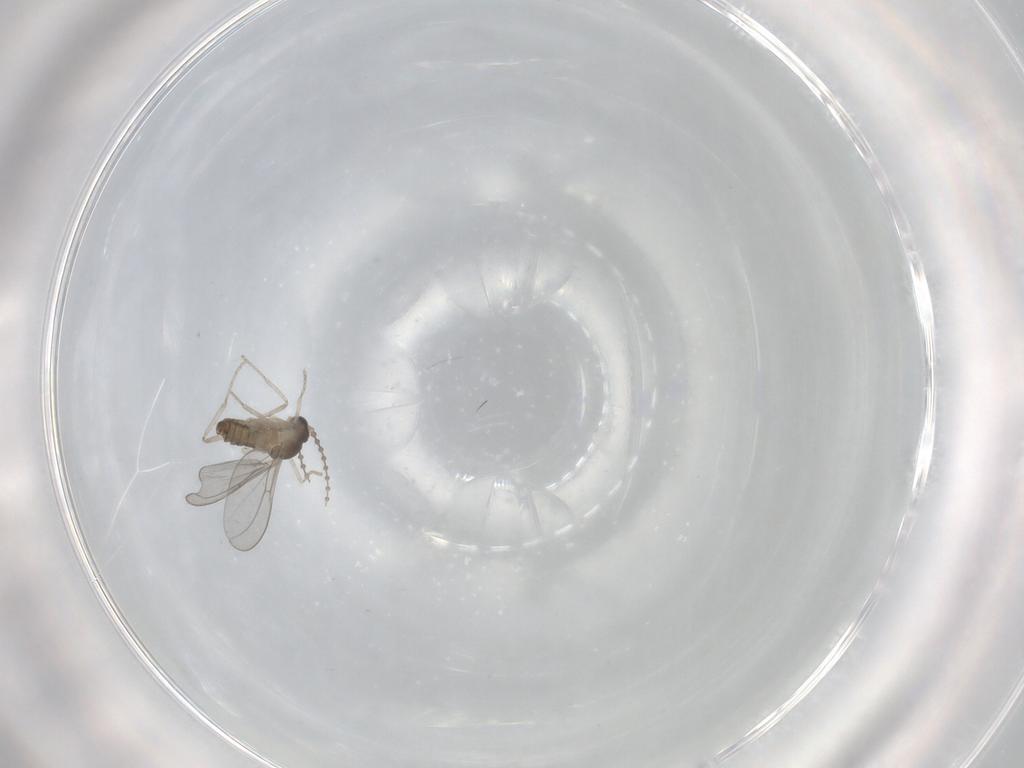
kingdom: Animalia
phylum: Arthropoda
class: Insecta
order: Diptera
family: Cecidomyiidae
